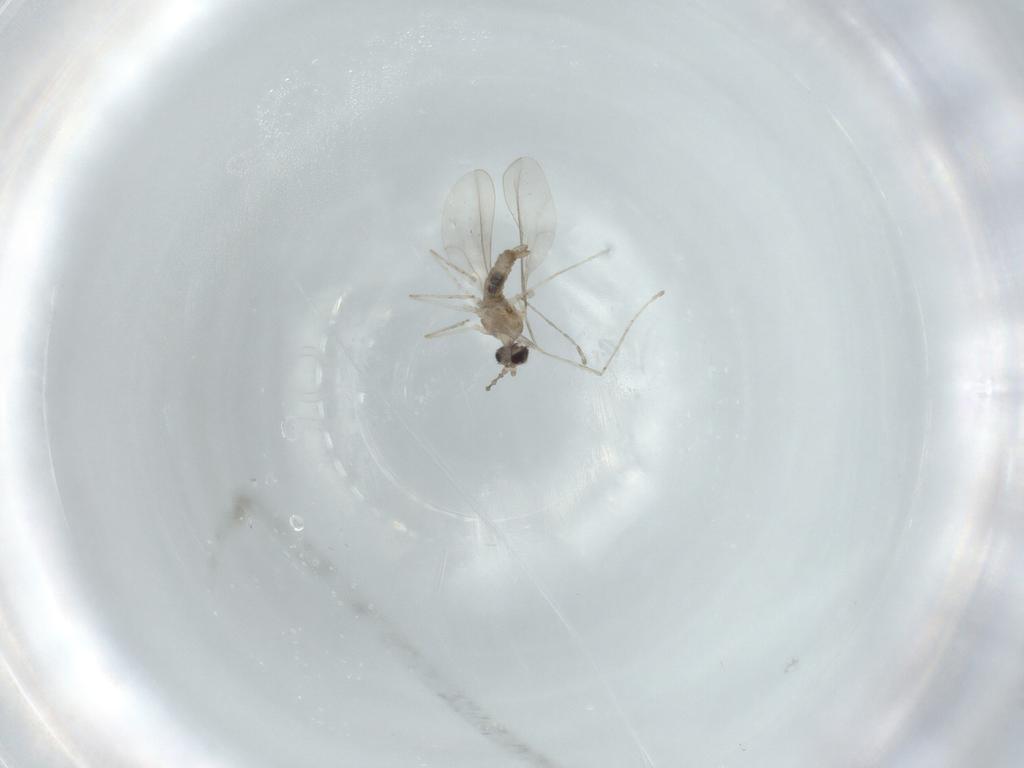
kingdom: Animalia
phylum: Arthropoda
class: Insecta
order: Diptera
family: Cecidomyiidae
